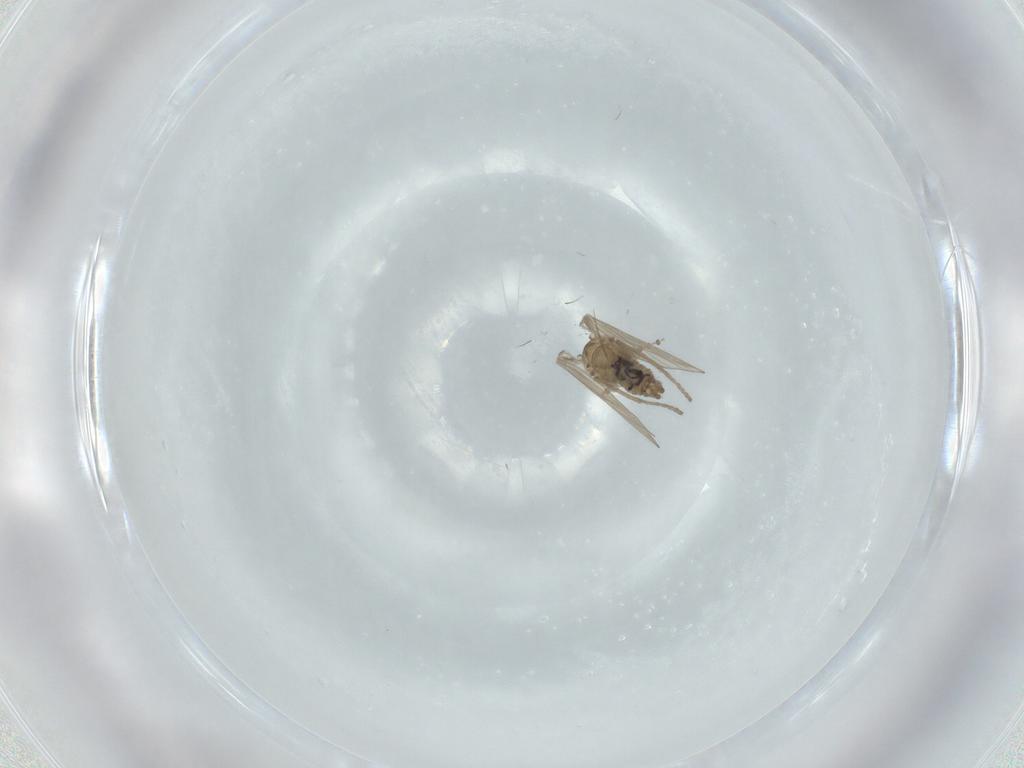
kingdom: Animalia
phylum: Arthropoda
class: Insecta
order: Diptera
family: Psychodidae
